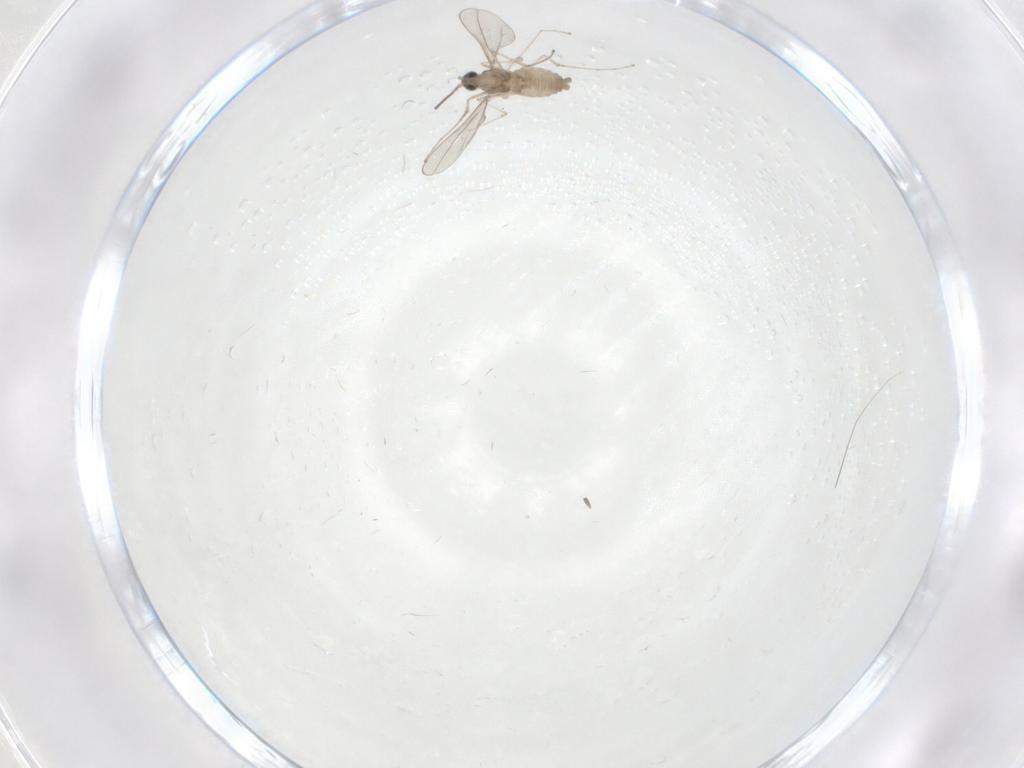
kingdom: Animalia
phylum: Arthropoda
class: Insecta
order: Diptera
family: Cecidomyiidae
